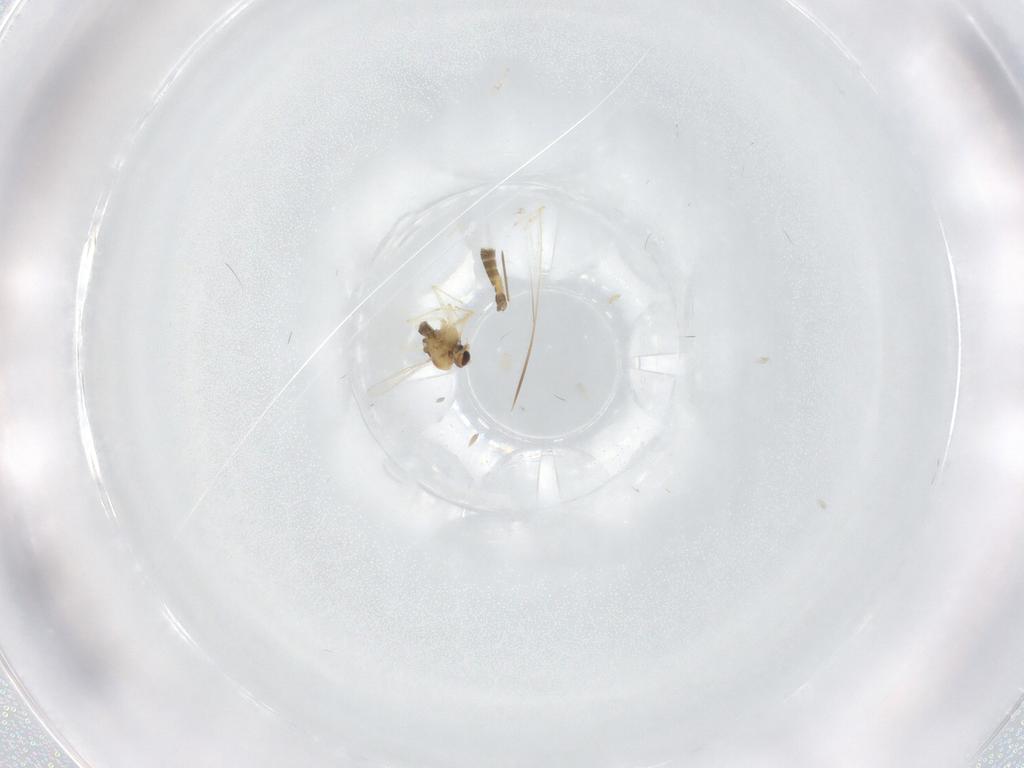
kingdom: Animalia
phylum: Arthropoda
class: Insecta
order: Diptera
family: Chironomidae
